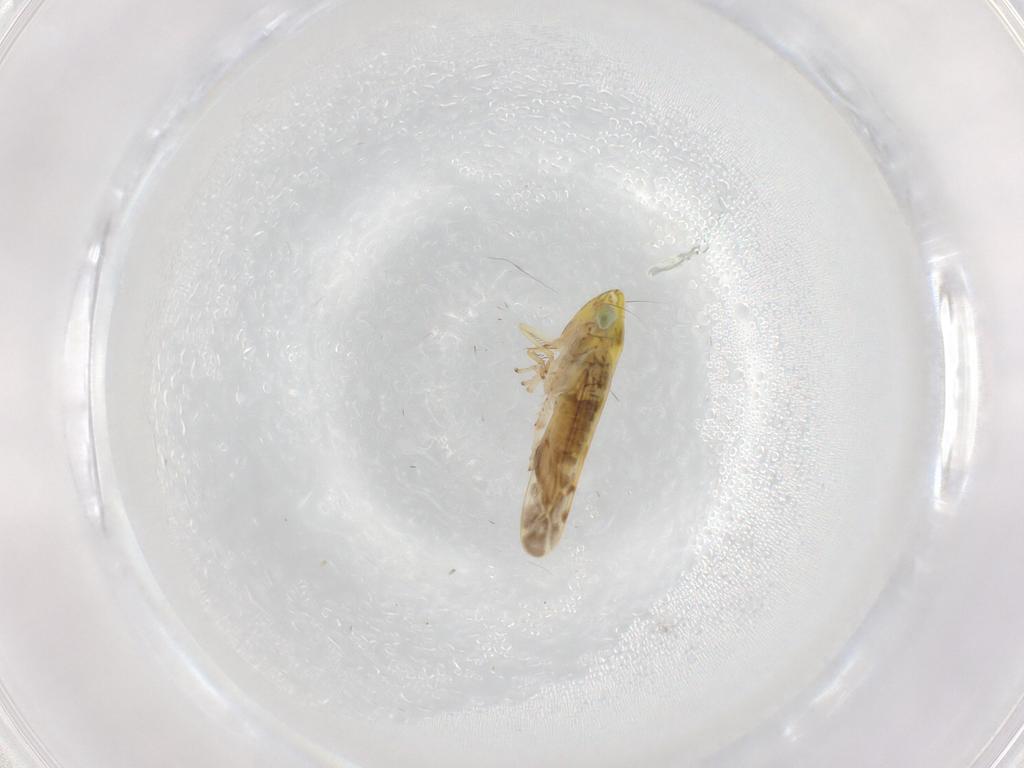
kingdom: Animalia
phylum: Arthropoda
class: Insecta
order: Hemiptera
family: Cicadellidae
